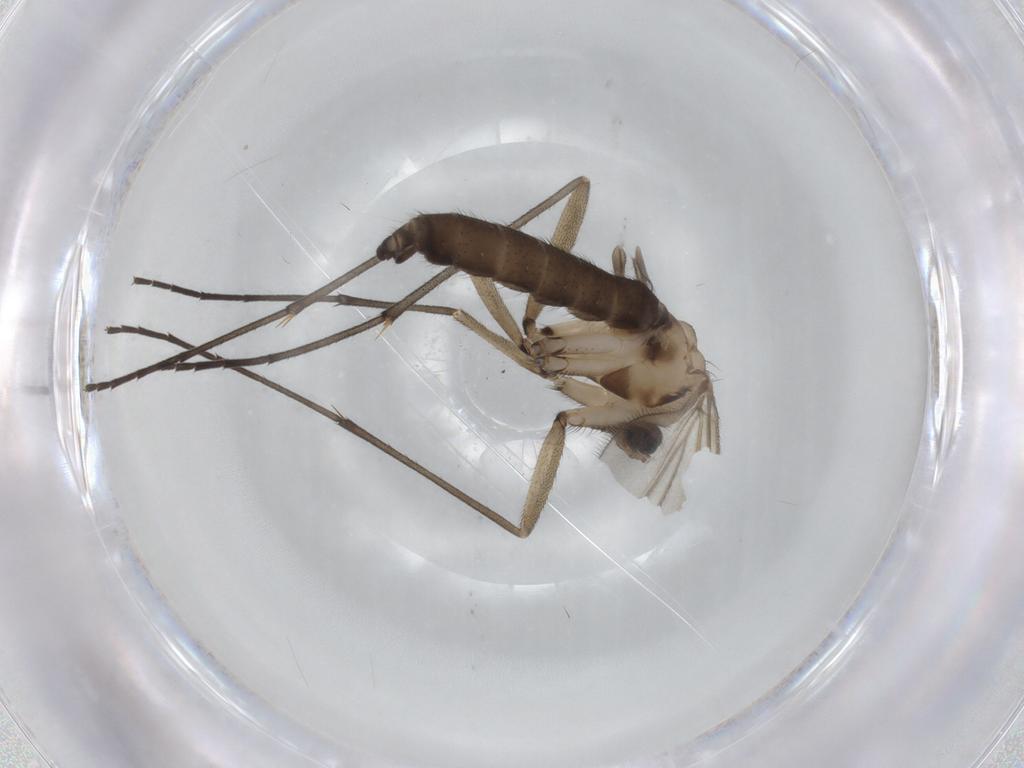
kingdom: Animalia
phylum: Arthropoda
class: Insecta
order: Diptera
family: Sciaridae
